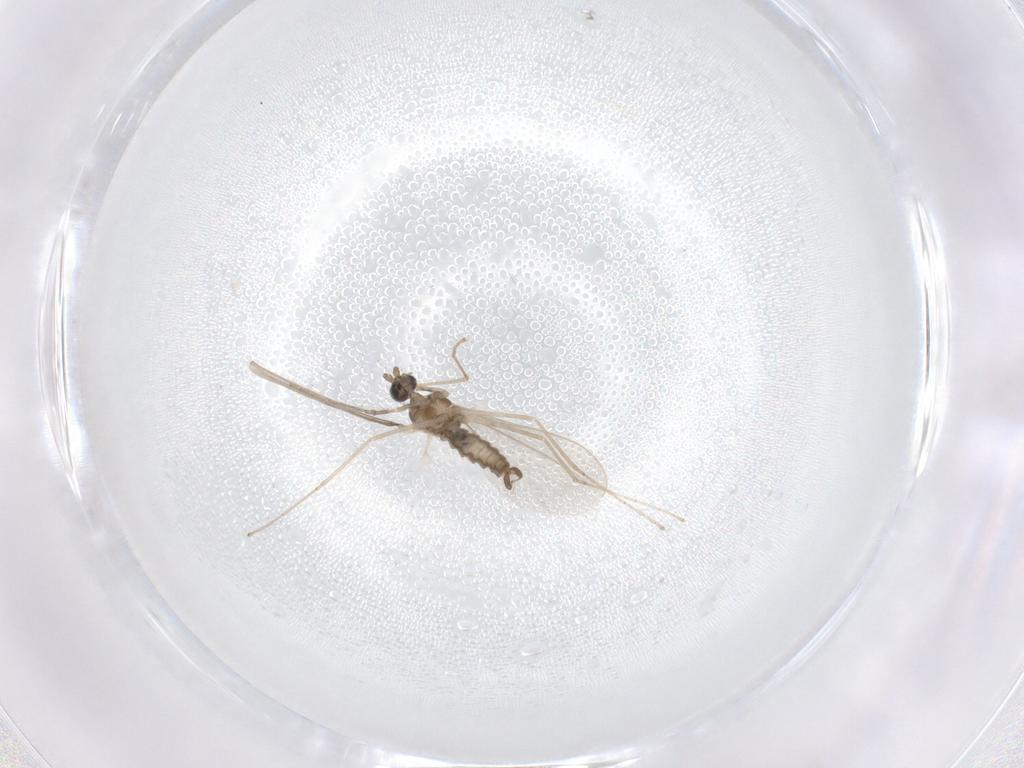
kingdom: Animalia
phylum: Arthropoda
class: Insecta
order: Diptera
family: Cecidomyiidae
